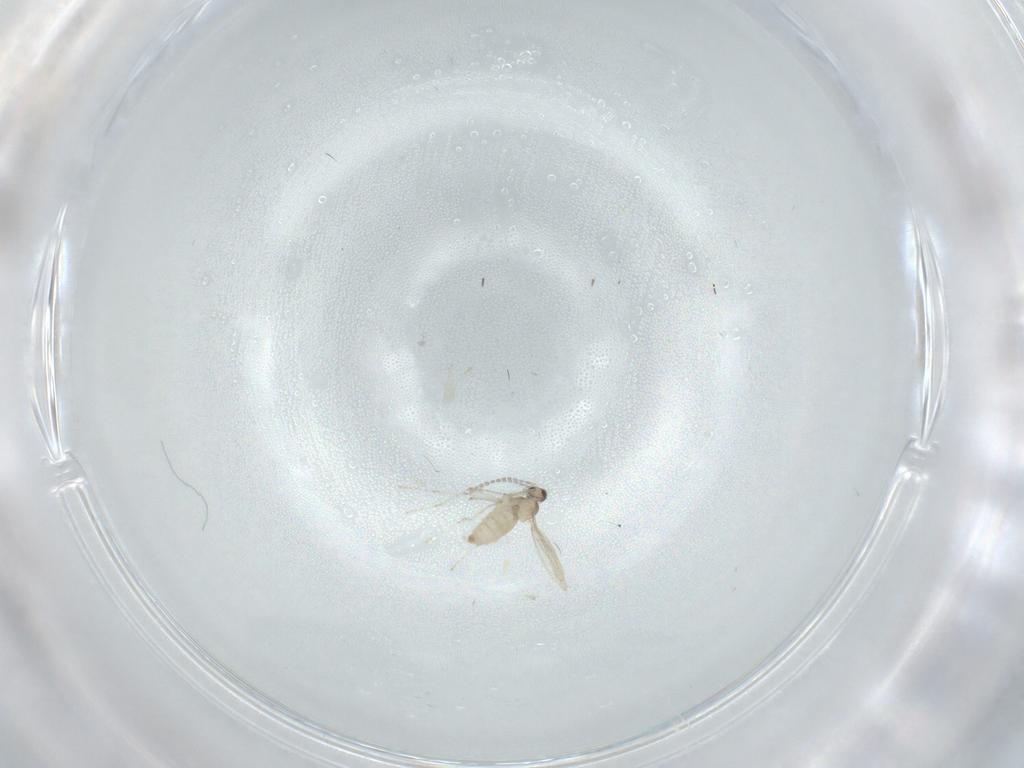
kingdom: Animalia
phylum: Arthropoda
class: Insecta
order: Diptera
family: Cecidomyiidae
